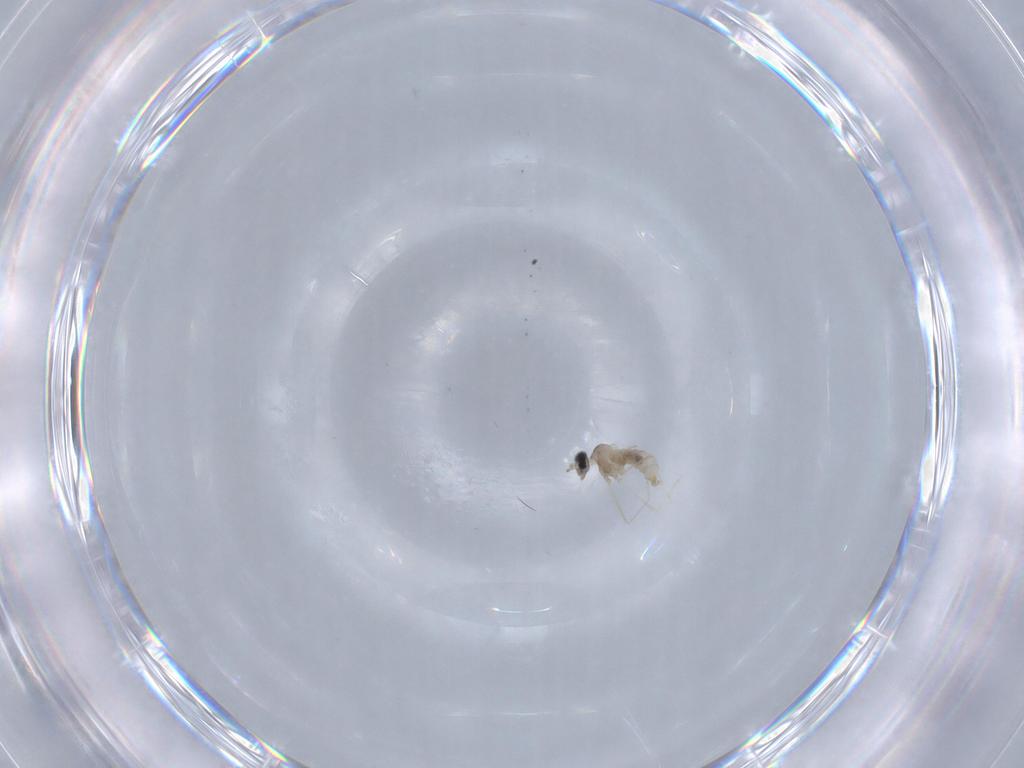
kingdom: Animalia
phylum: Arthropoda
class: Insecta
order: Diptera
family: Cecidomyiidae
